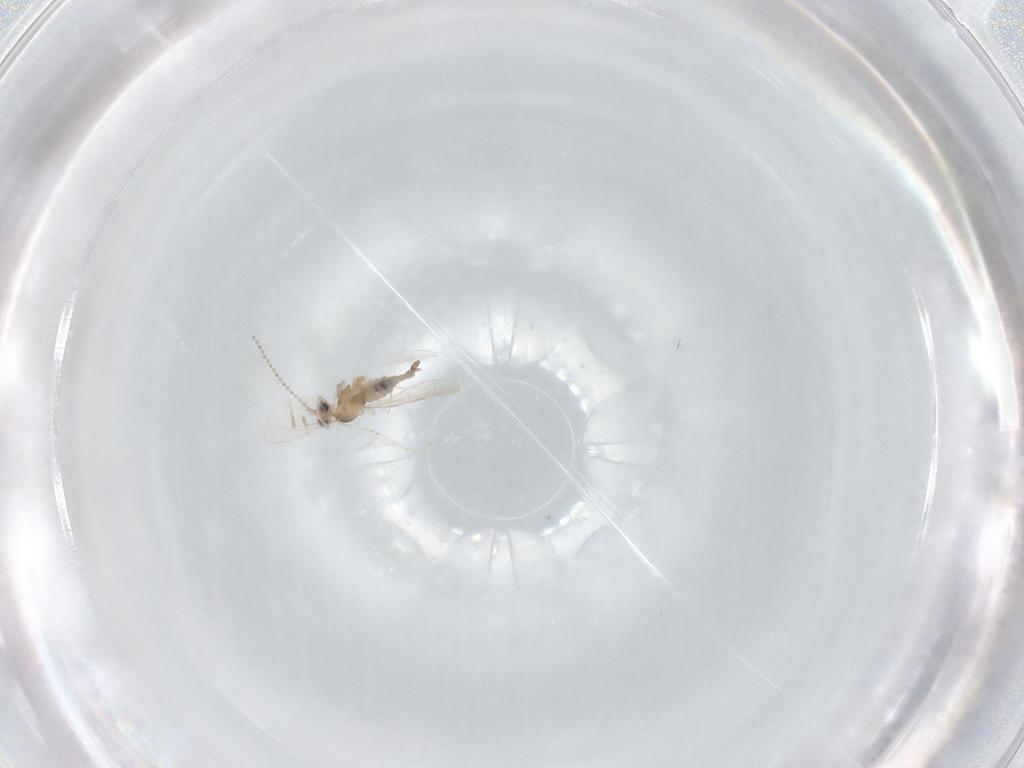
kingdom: Animalia
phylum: Arthropoda
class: Insecta
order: Diptera
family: Cecidomyiidae
